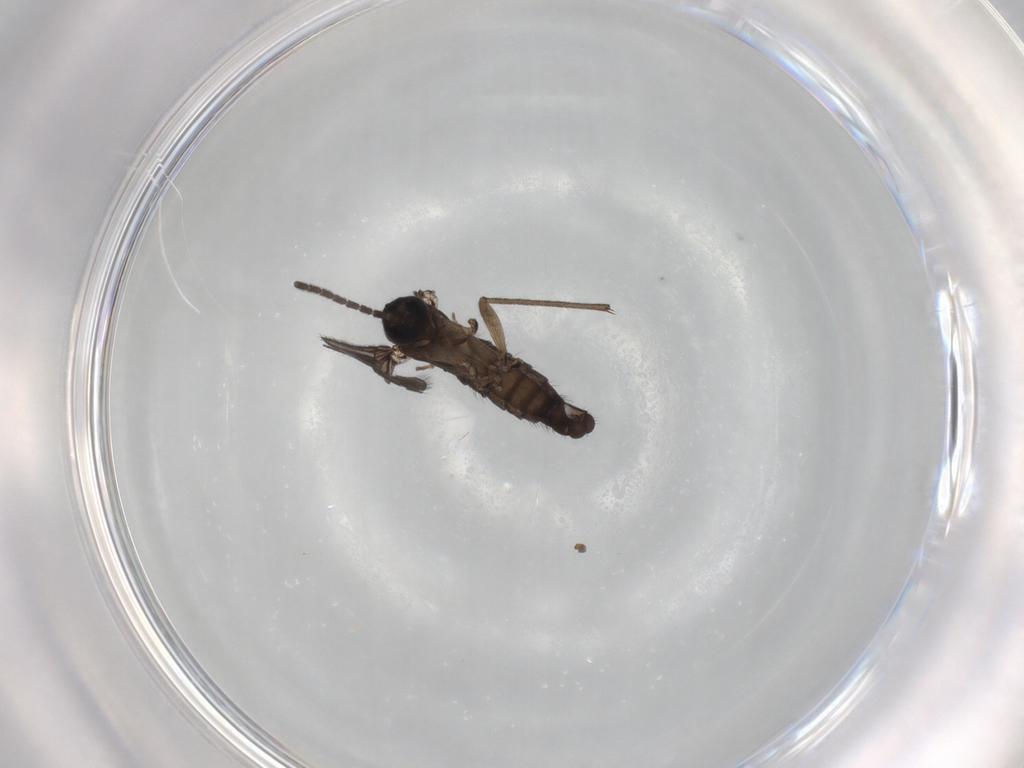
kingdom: Animalia
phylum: Arthropoda
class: Insecta
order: Diptera
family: Sciaridae
